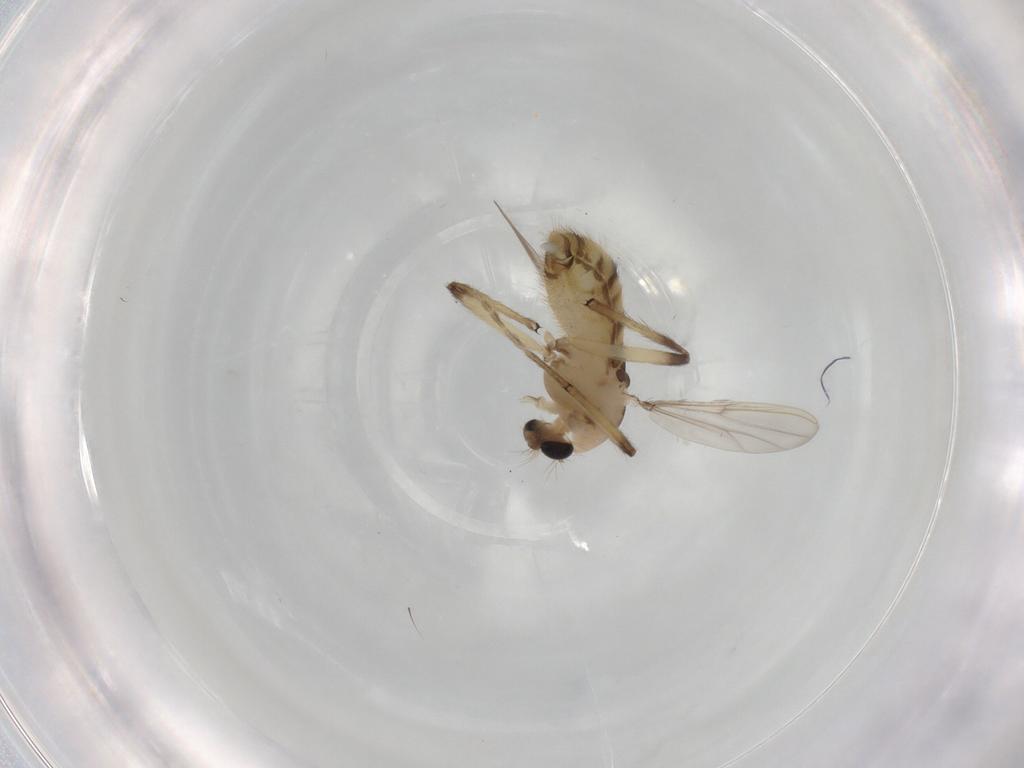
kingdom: Animalia
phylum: Arthropoda
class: Insecta
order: Diptera
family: Chironomidae
